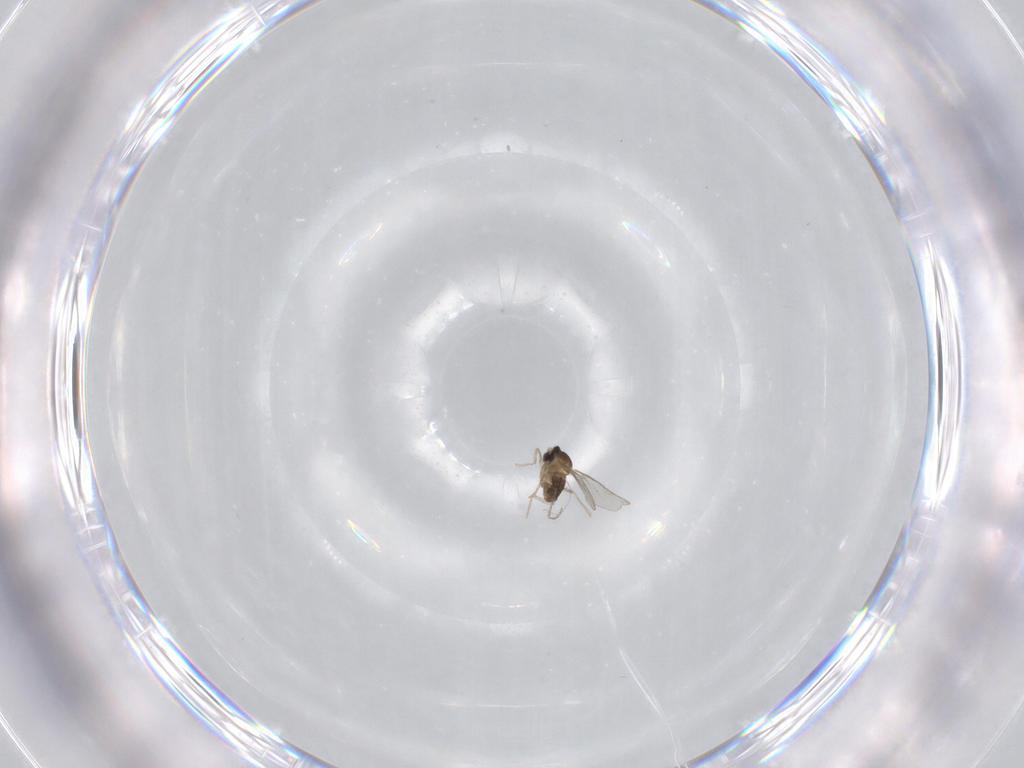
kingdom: Animalia
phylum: Arthropoda
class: Insecta
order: Diptera
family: Cecidomyiidae
